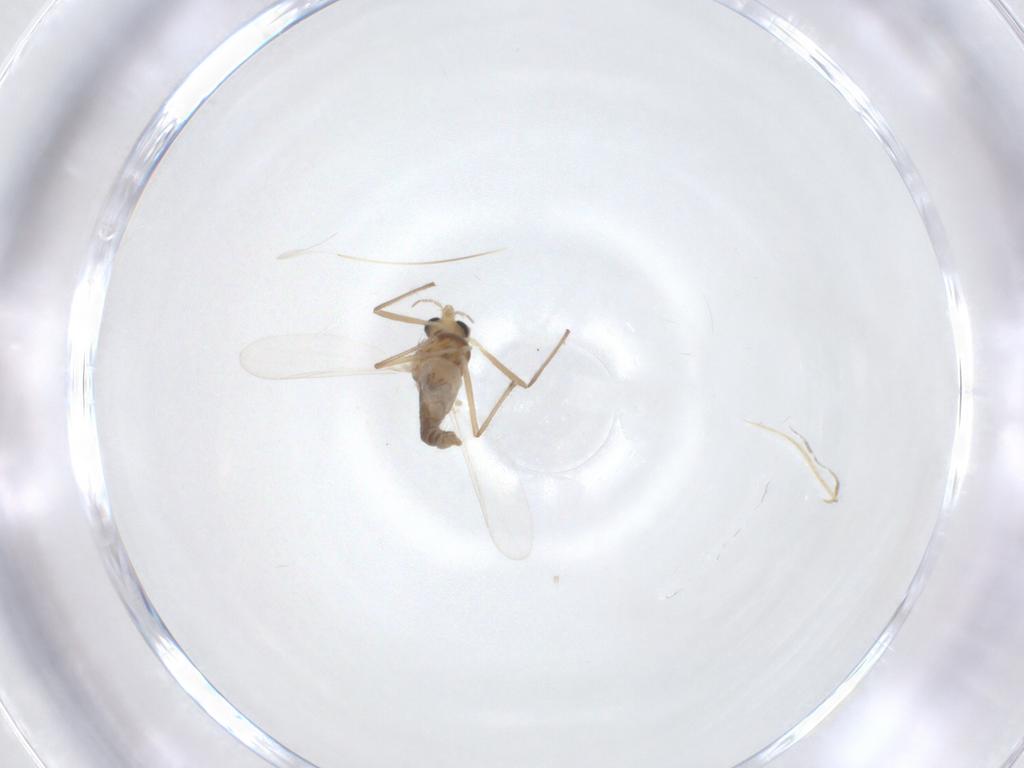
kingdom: Animalia
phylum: Arthropoda
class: Insecta
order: Diptera
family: Chironomidae
